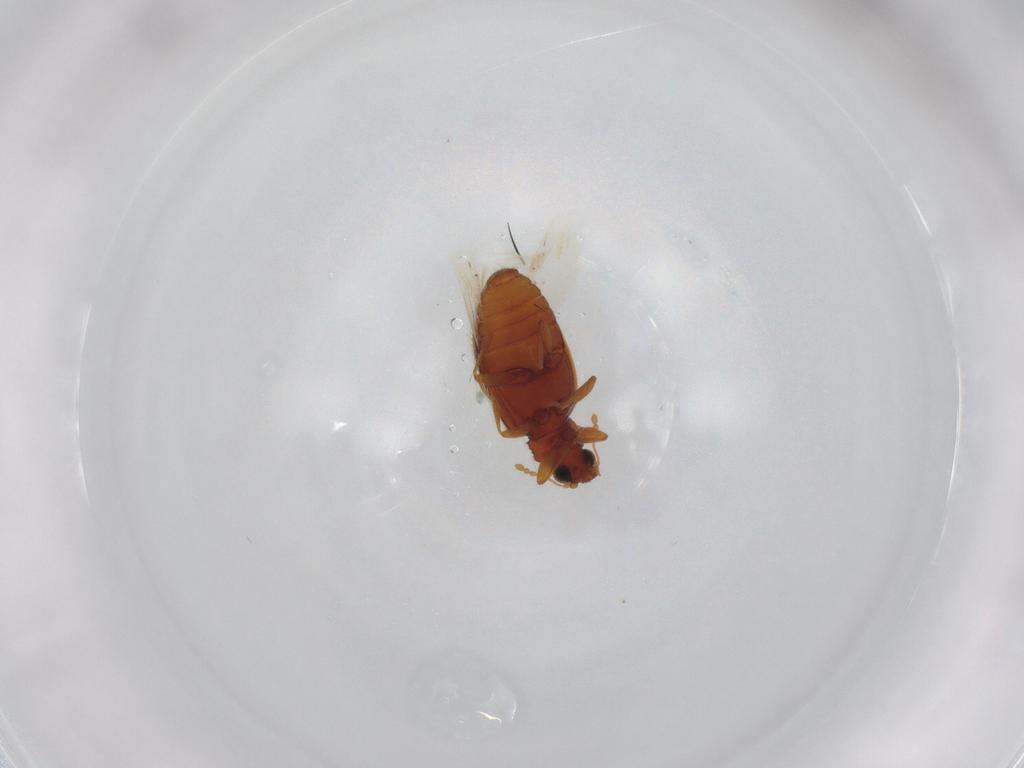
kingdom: Animalia
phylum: Arthropoda
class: Insecta
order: Coleoptera
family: Latridiidae
